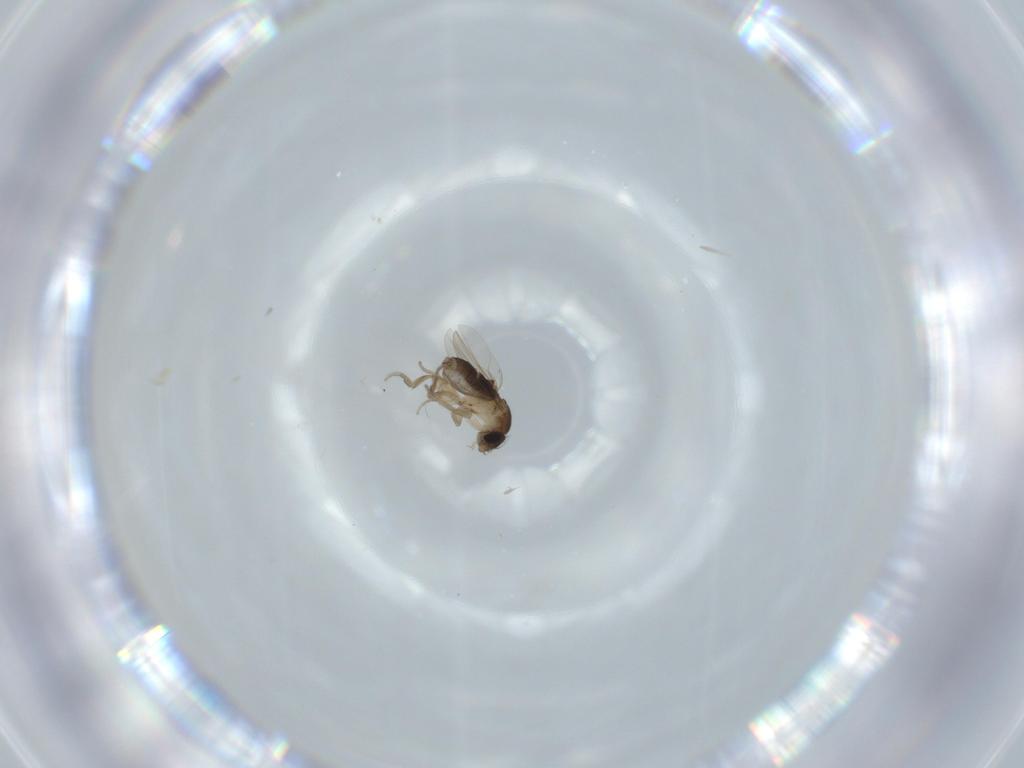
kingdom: Animalia
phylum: Arthropoda
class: Insecta
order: Diptera
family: Phoridae
